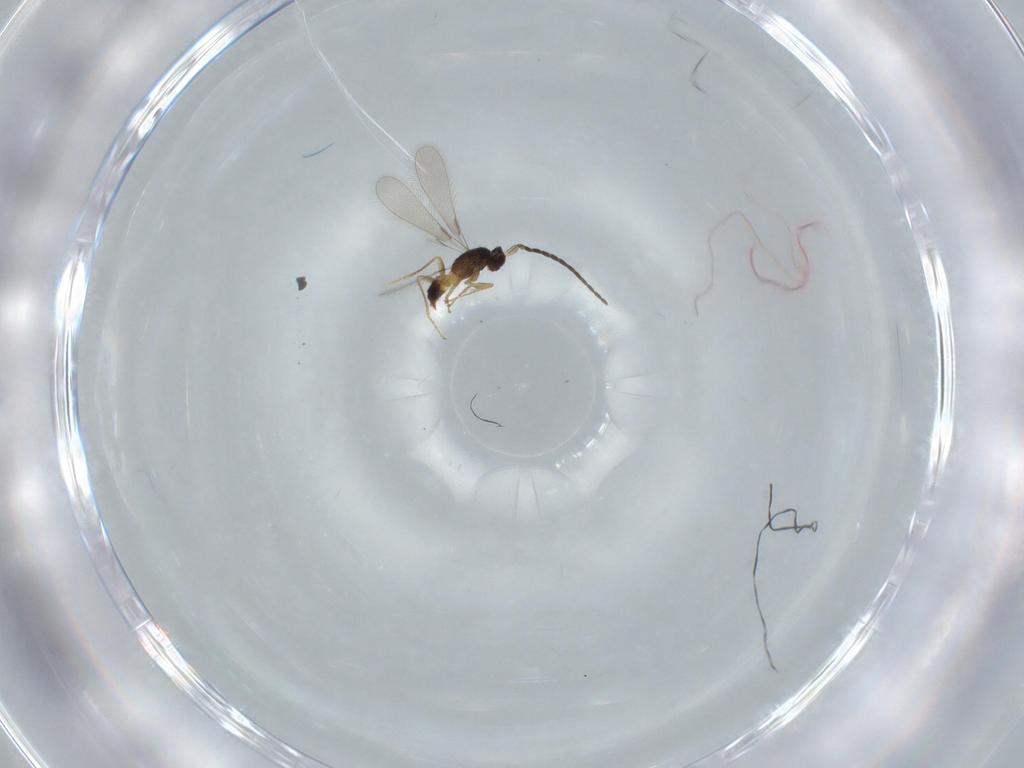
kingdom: Animalia
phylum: Arthropoda
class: Insecta
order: Hymenoptera
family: Mymaridae
